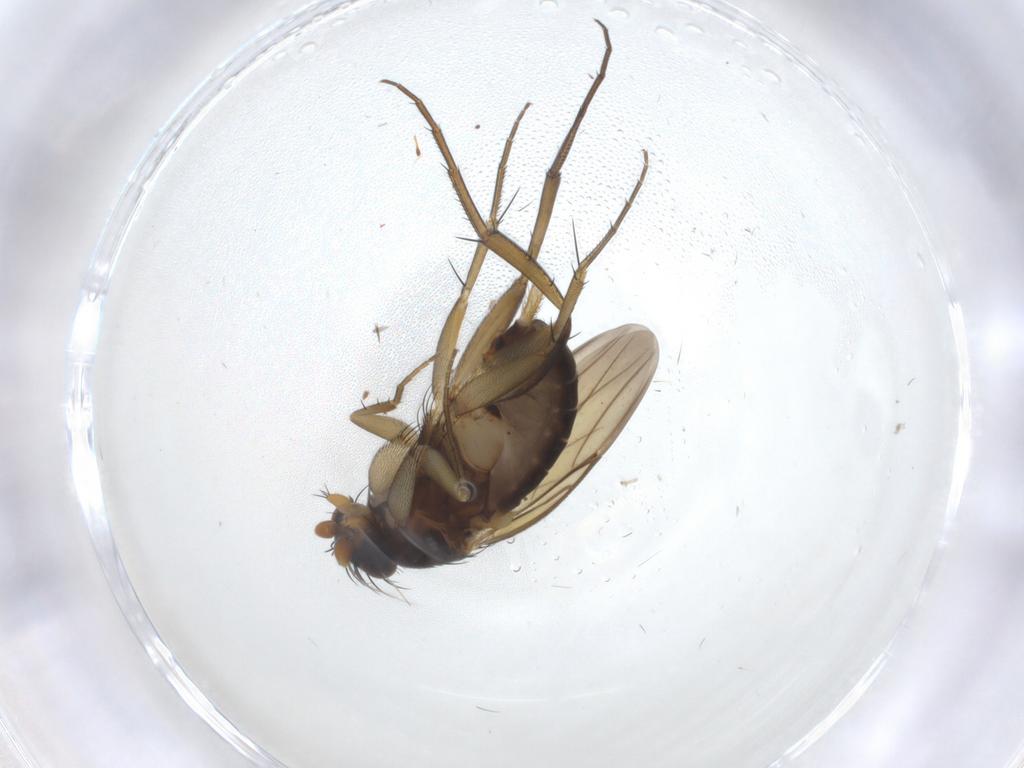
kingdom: Animalia
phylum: Arthropoda
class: Insecta
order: Diptera
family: Phoridae
